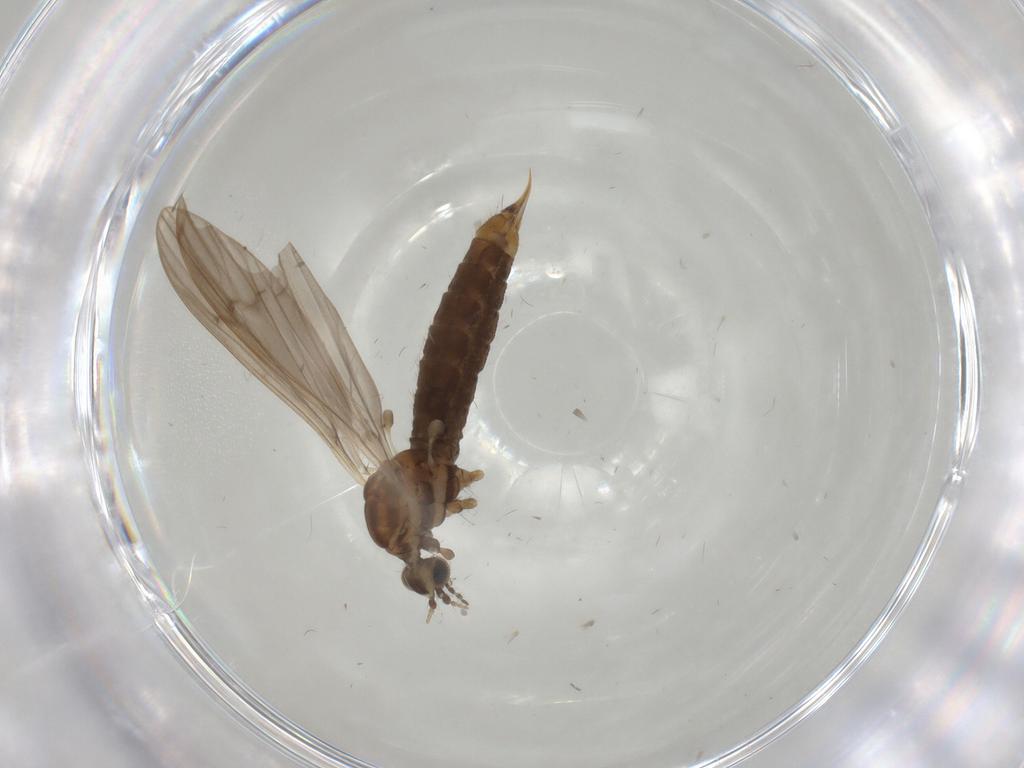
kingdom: Animalia
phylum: Arthropoda
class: Insecta
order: Diptera
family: Limoniidae
